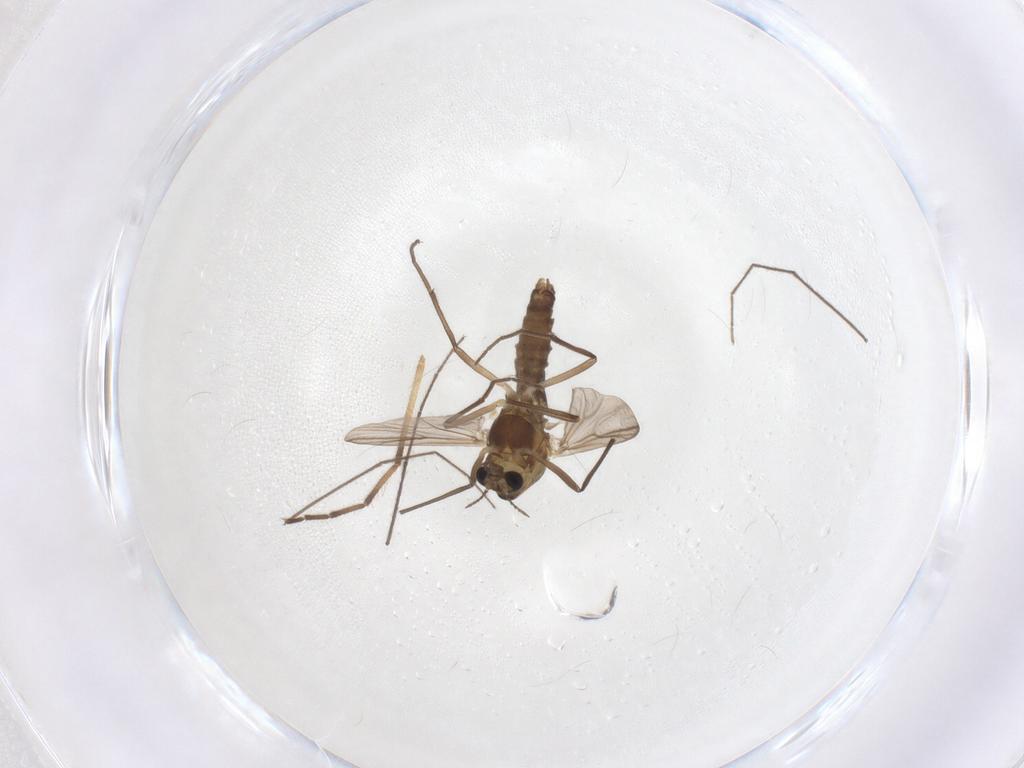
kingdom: Animalia
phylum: Arthropoda
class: Insecta
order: Diptera
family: Chironomidae
